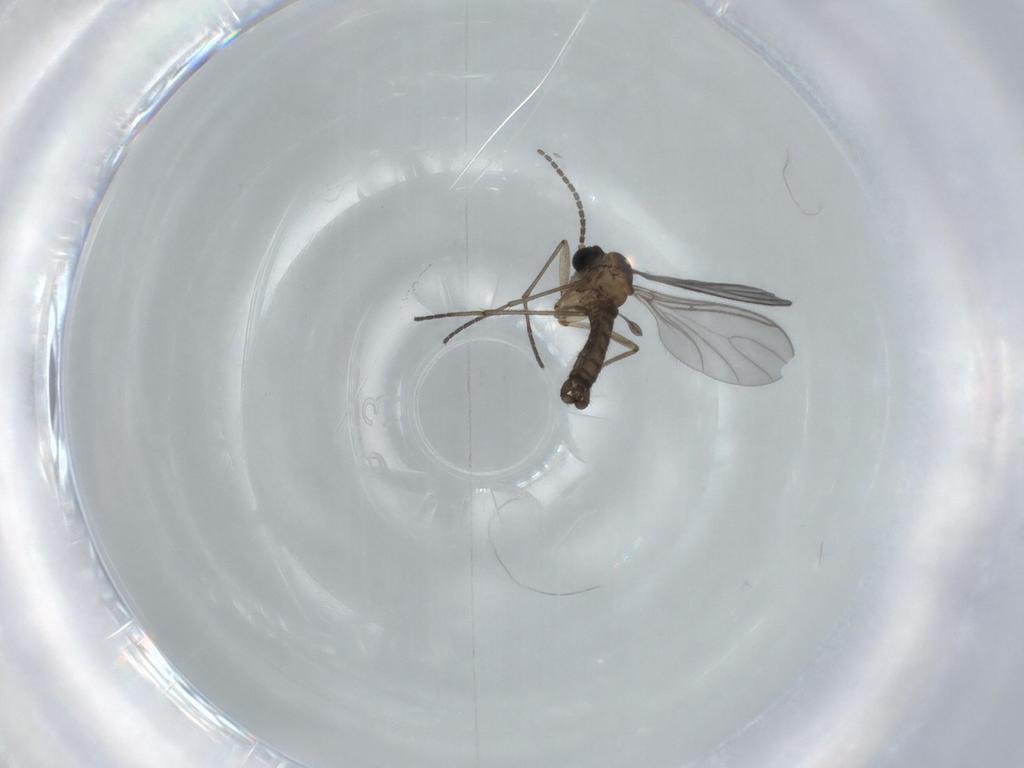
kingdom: Animalia
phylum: Arthropoda
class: Insecta
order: Diptera
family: Sciaridae
